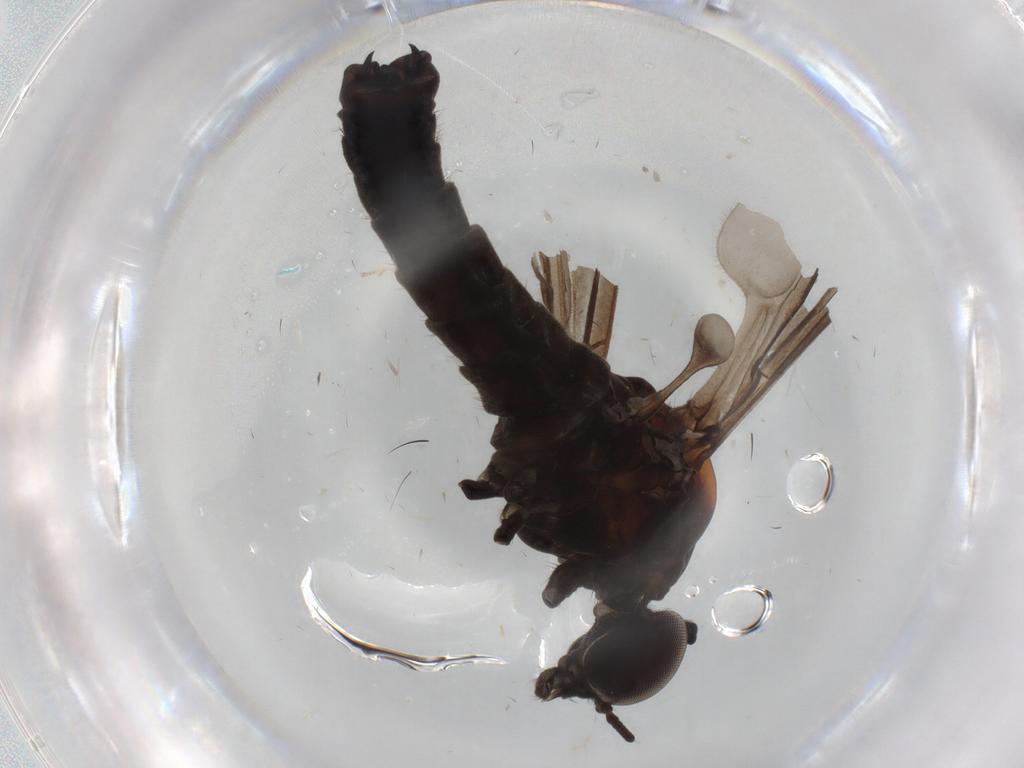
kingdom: Animalia
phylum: Arthropoda
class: Insecta
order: Diptera
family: Phoridae
